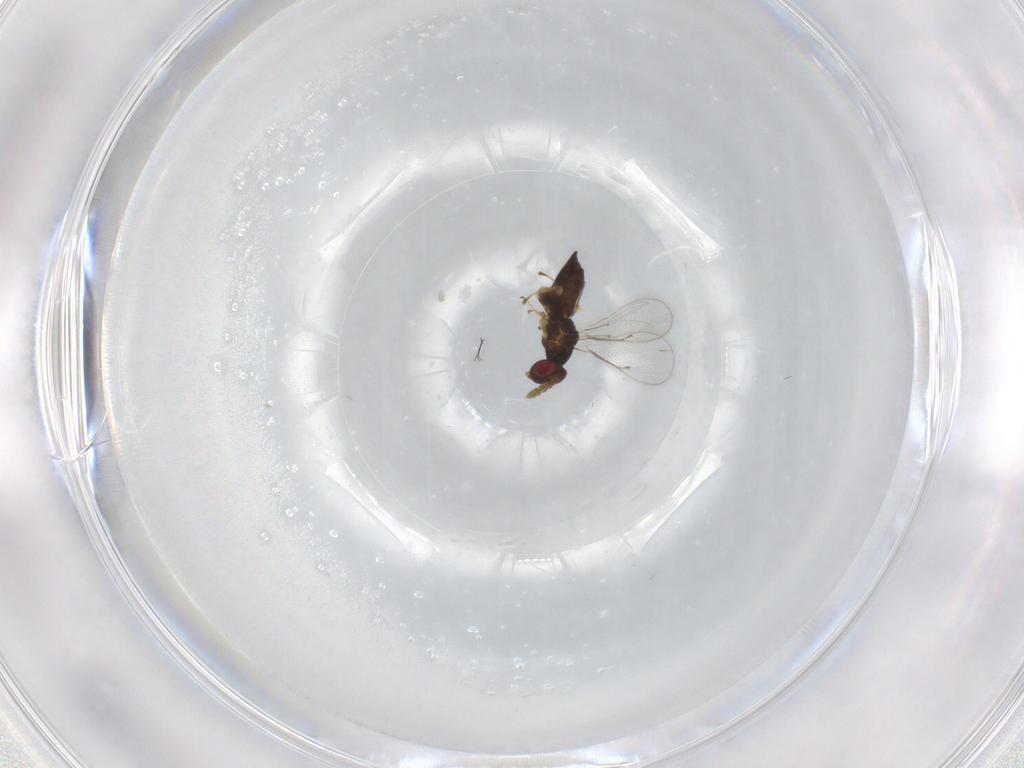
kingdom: Animalia
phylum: Arthropoda
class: Insecta
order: Hymenoptera
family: Eulophidae
